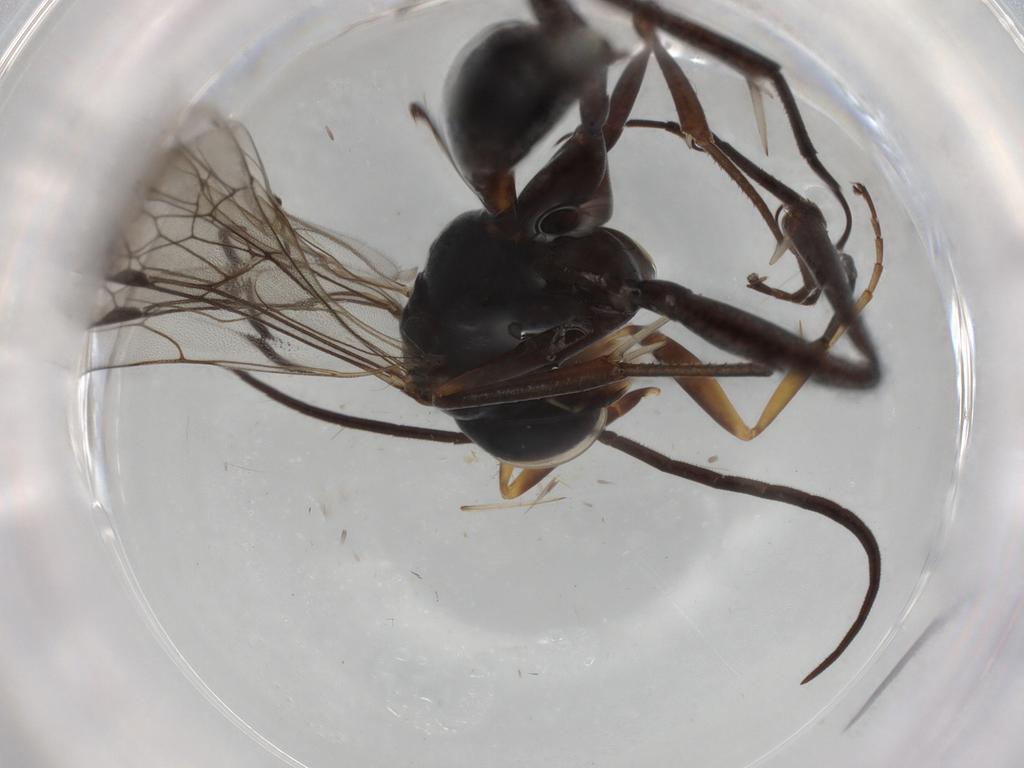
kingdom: Animalia
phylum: Arthropoda
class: Insecta
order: Hymenoptera
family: Pompilidae
